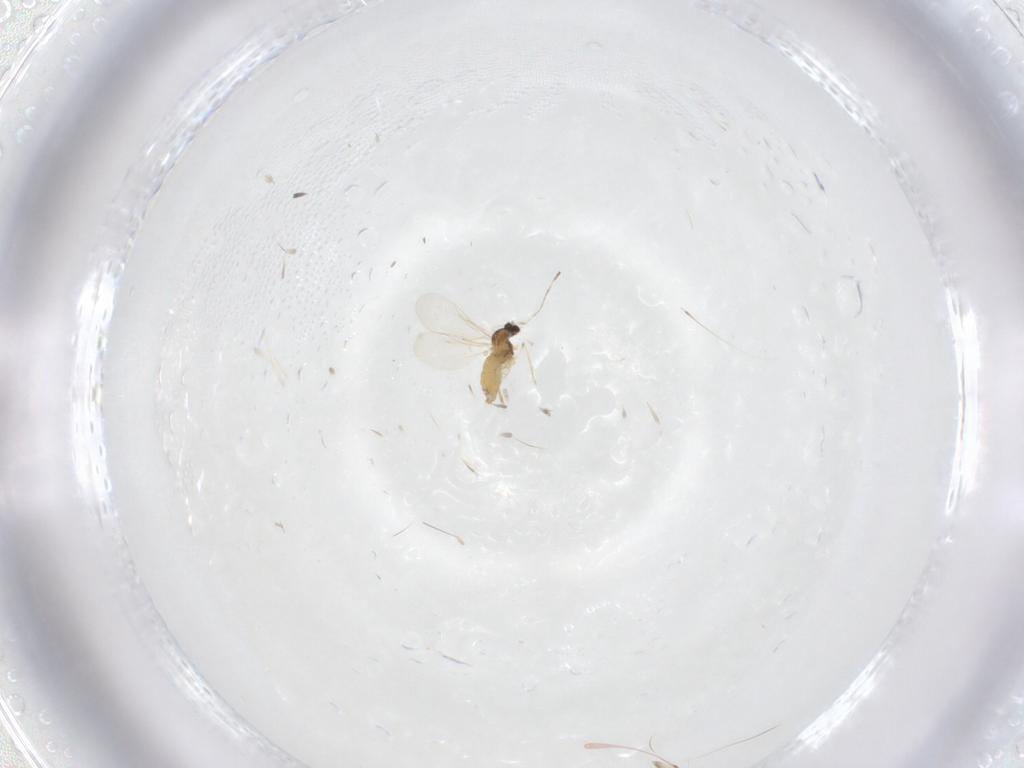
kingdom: Animalia
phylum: Arthropoda
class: Insecta
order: Diptera
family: Cecidomyiidae
